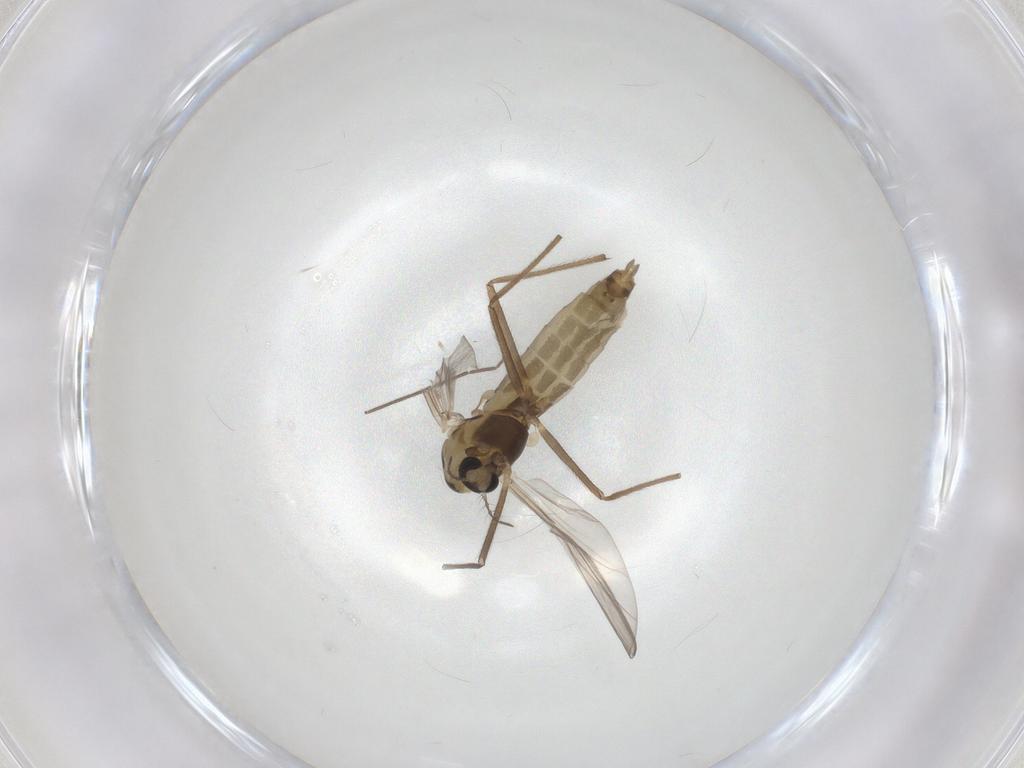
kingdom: Animalia
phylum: Arthropoda
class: Insecta
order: Diptera
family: Chironomidae
